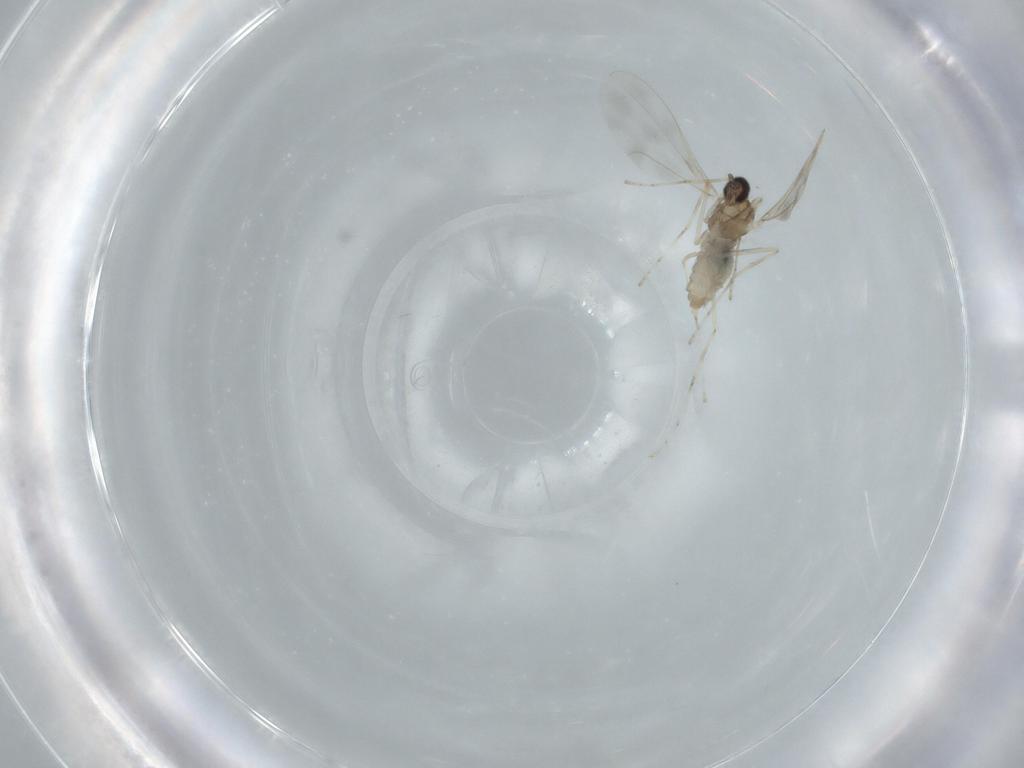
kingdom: Animalia
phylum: Arthropoda
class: Insecta
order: Diptera
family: Cecidomyiidae
